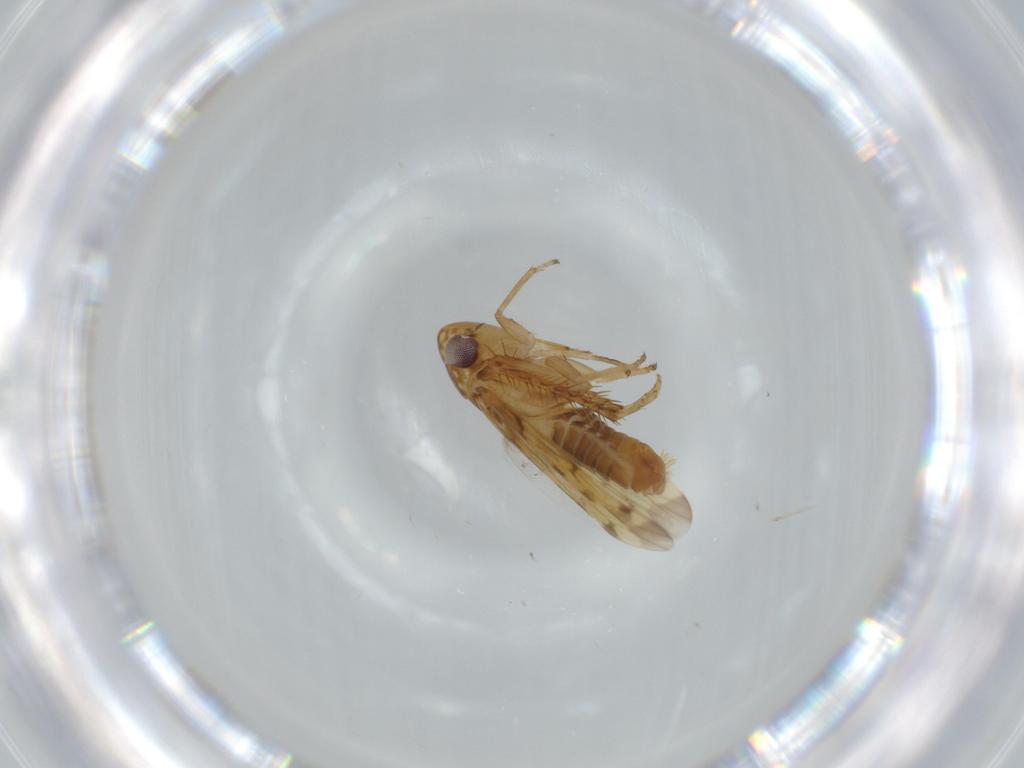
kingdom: Animalia
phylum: Arthropoda
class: Insecta
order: Hemiptera
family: Cicadellidae
